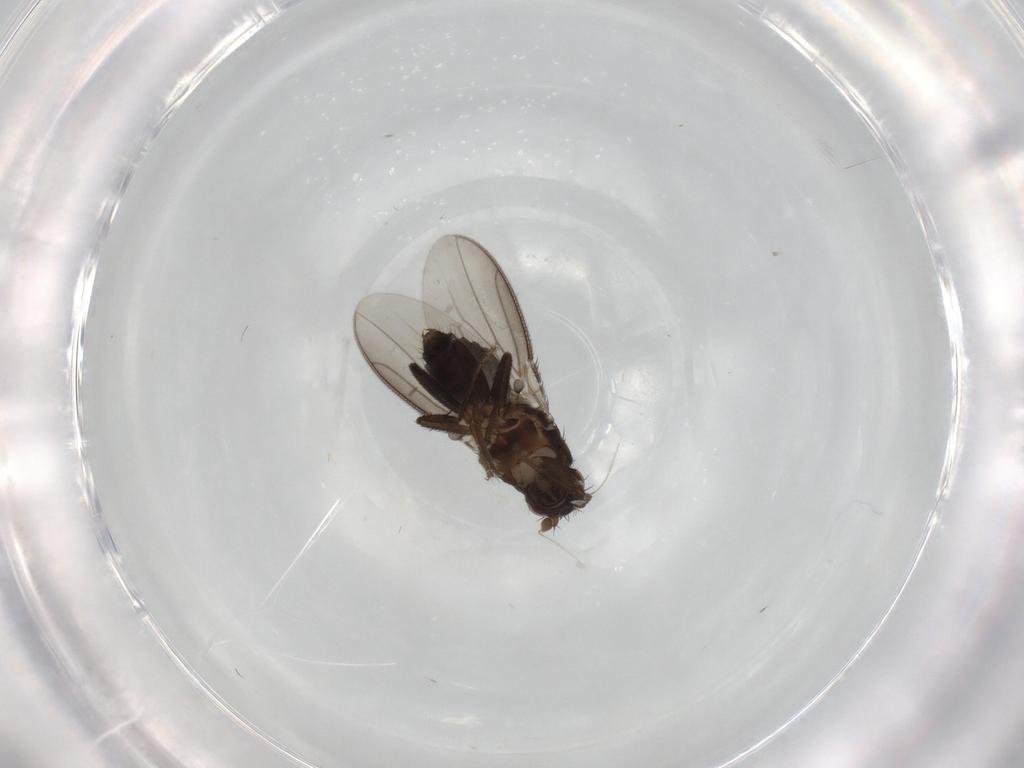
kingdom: Animalia
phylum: Arthropoda
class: Insecta
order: Diptera
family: Sphaeroceridae
